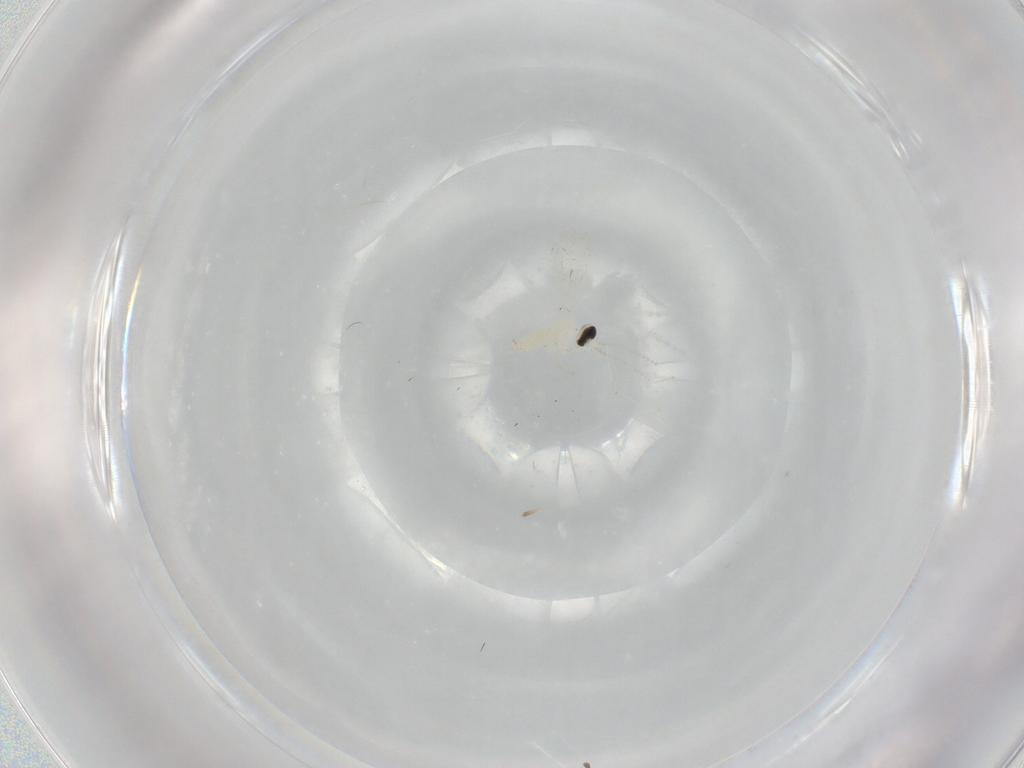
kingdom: Animalia
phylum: Arthropoda
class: Insecta
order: Diptera
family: Cecidomyiidae
